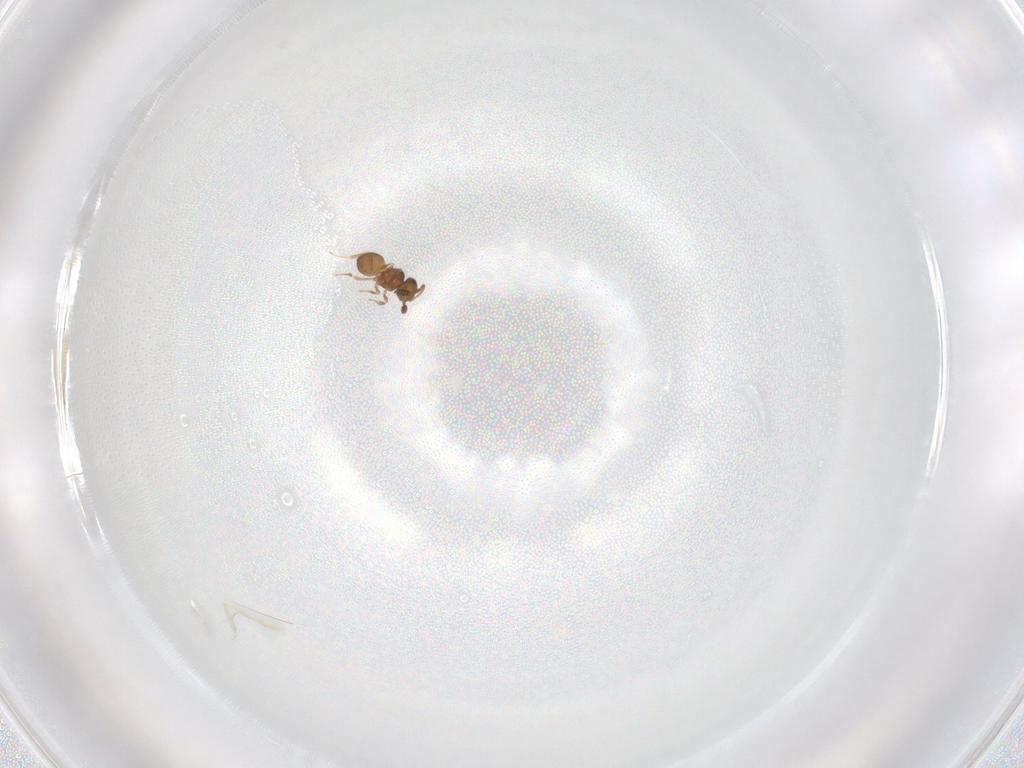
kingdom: Animalia
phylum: Arthropoda
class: Insecta
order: Hymenoptera
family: Scelionidae
